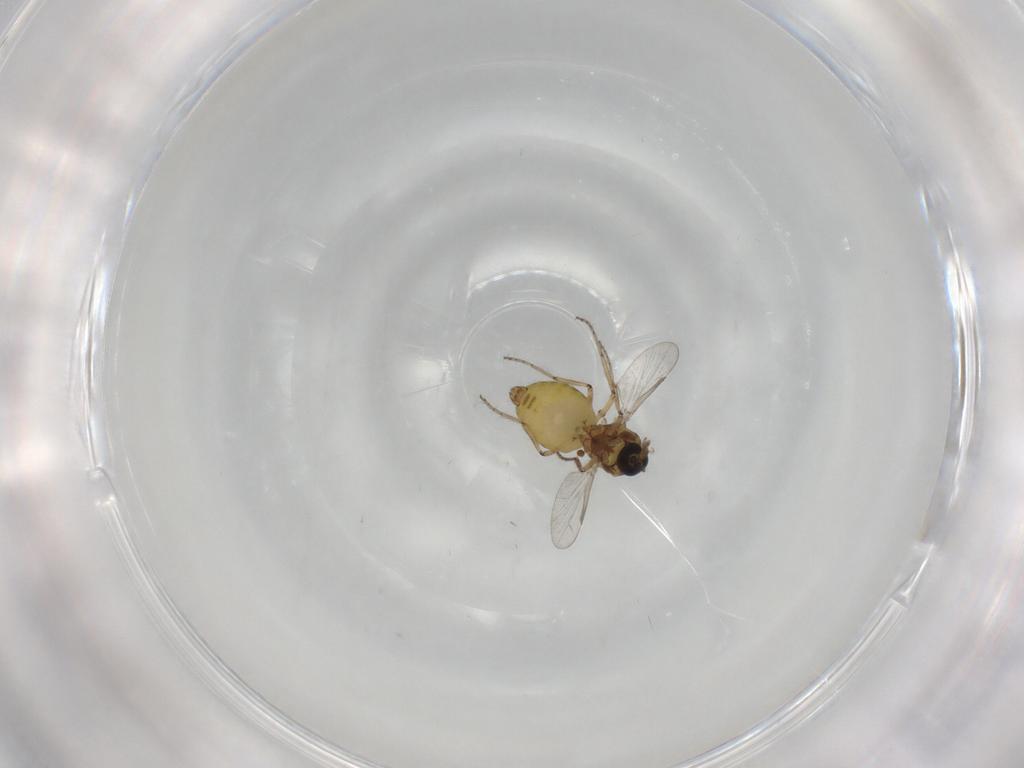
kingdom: Animalia
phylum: Arthropoda
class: Insecta
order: Diptera
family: Ceratopogonidae
